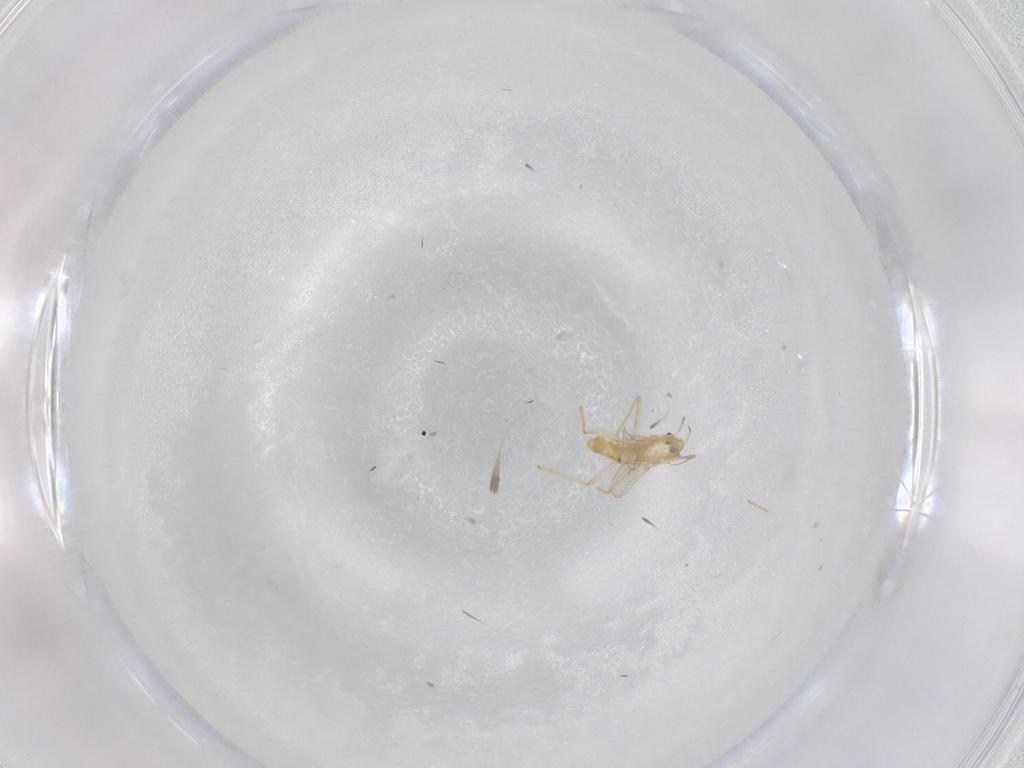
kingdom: Animalia
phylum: Arthropoda
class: Insecta
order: Diptera
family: Chironomidae
